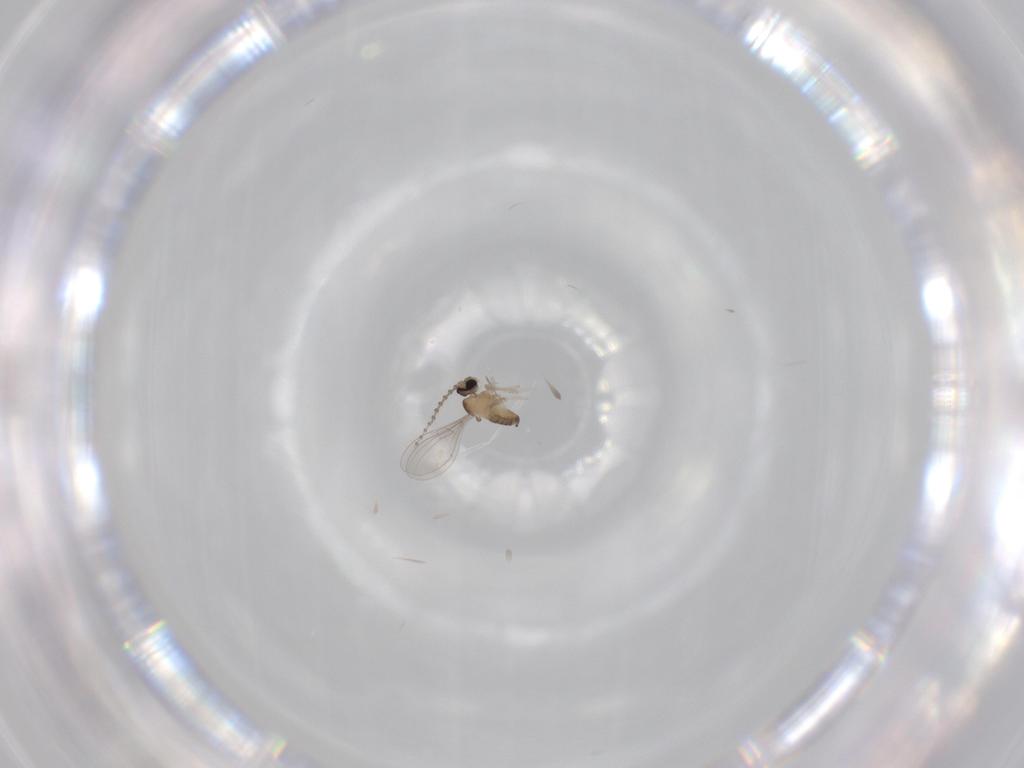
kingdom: Animalia
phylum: Arthropoda
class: Insecta
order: Diptera
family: Cecidomyiidae
